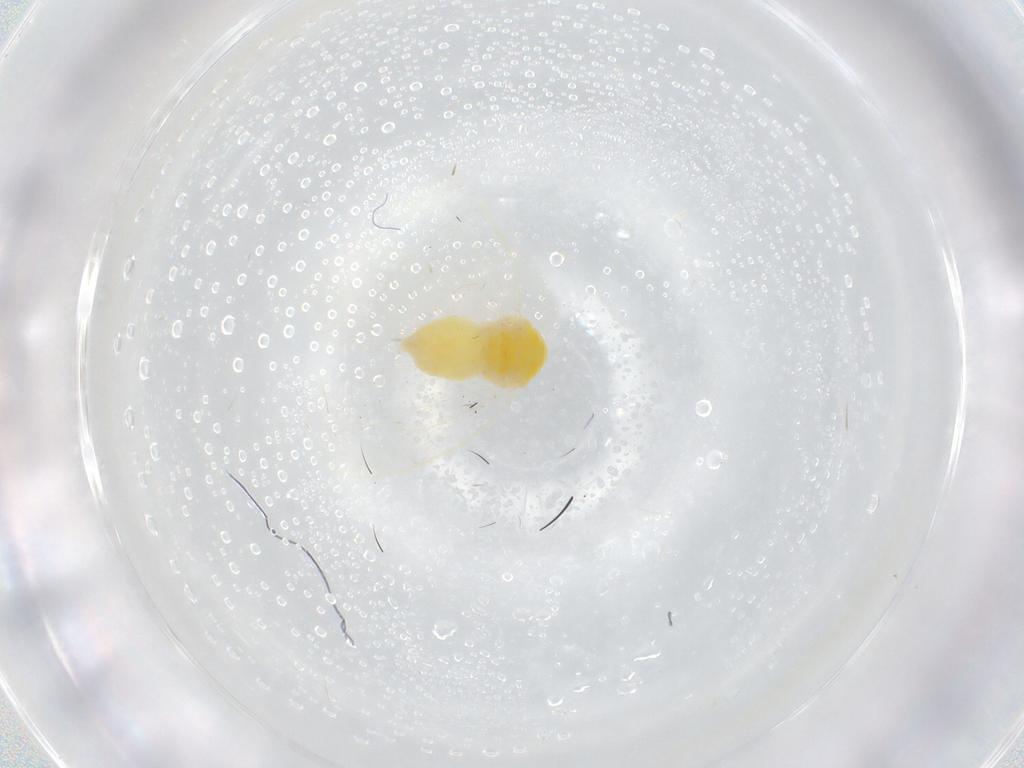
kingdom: Animalia
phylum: Arthropoda
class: Insecta
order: Hemiptera
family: Aleyrodidae
